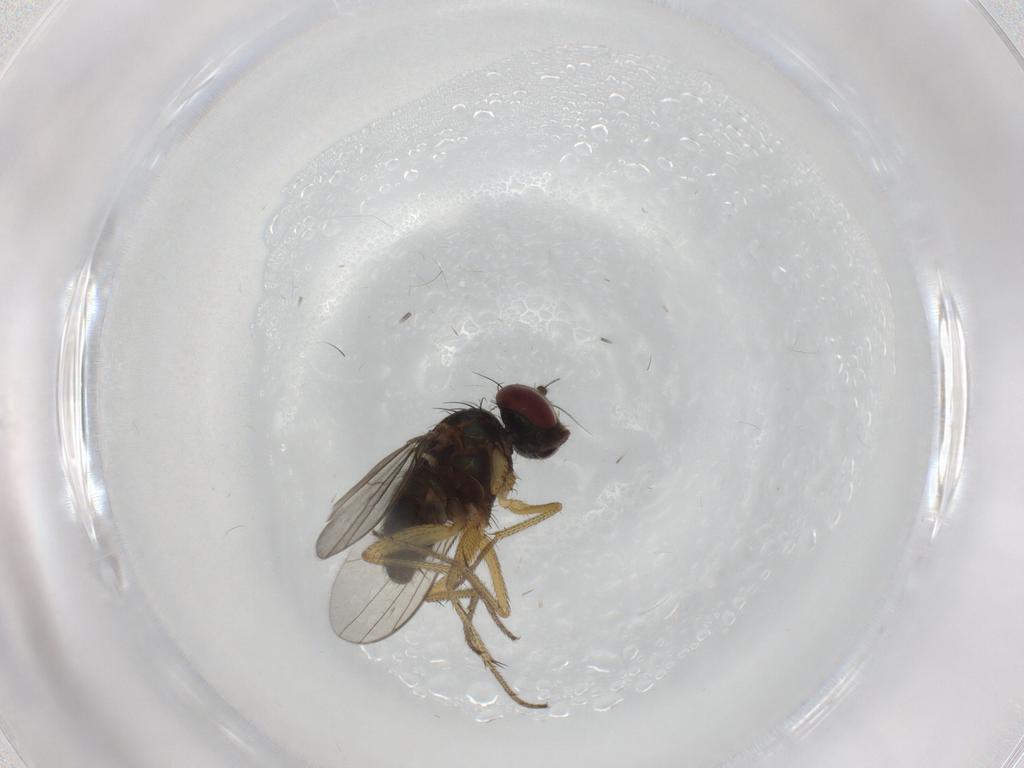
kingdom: Animalia
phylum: Arthropoda
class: Insecta
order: Diptera
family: Dolichopodidae
